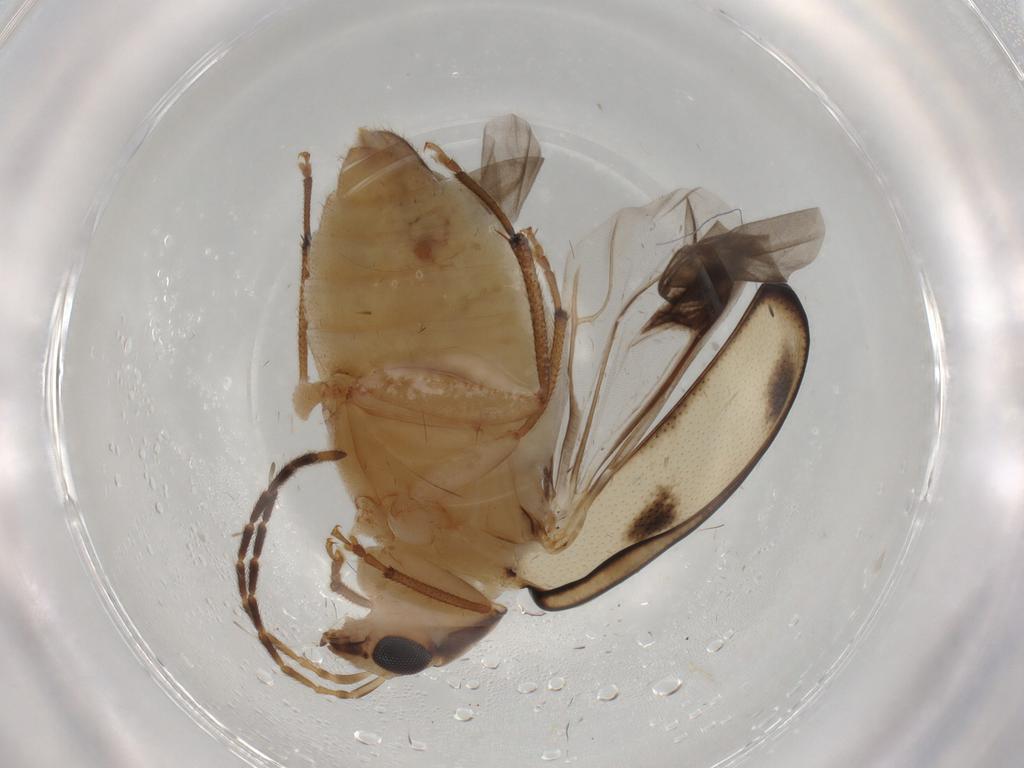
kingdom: Animalia
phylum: Arthropoda
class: Insecta
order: Coleoptera
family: Chrysomelidae
